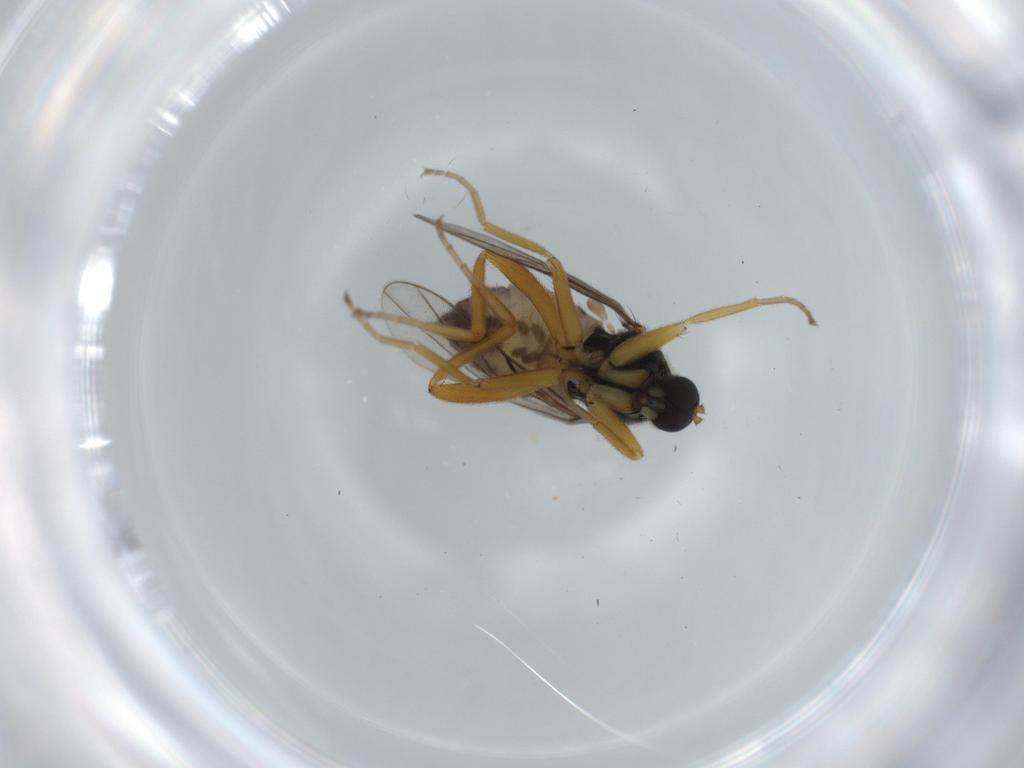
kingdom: Animalia
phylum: Arthropoda
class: Insecta
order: Diptera
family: Hybotidae
